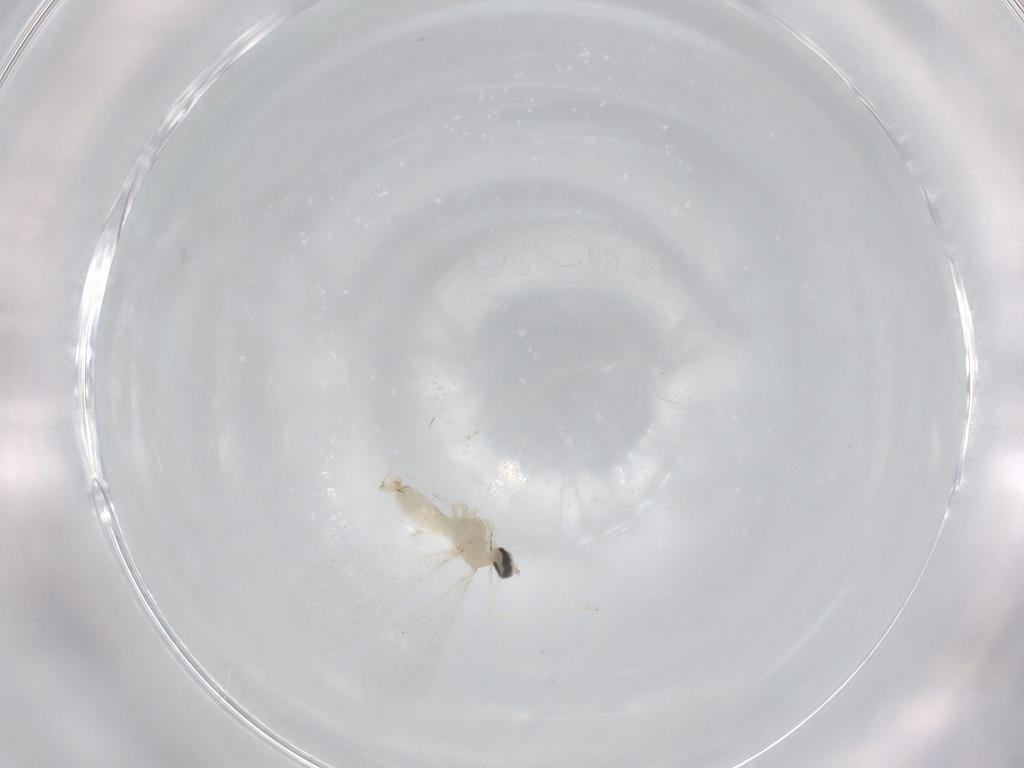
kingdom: Animalia
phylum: Arthropoda
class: Insecta
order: Diptera
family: Cecidomyiidae
